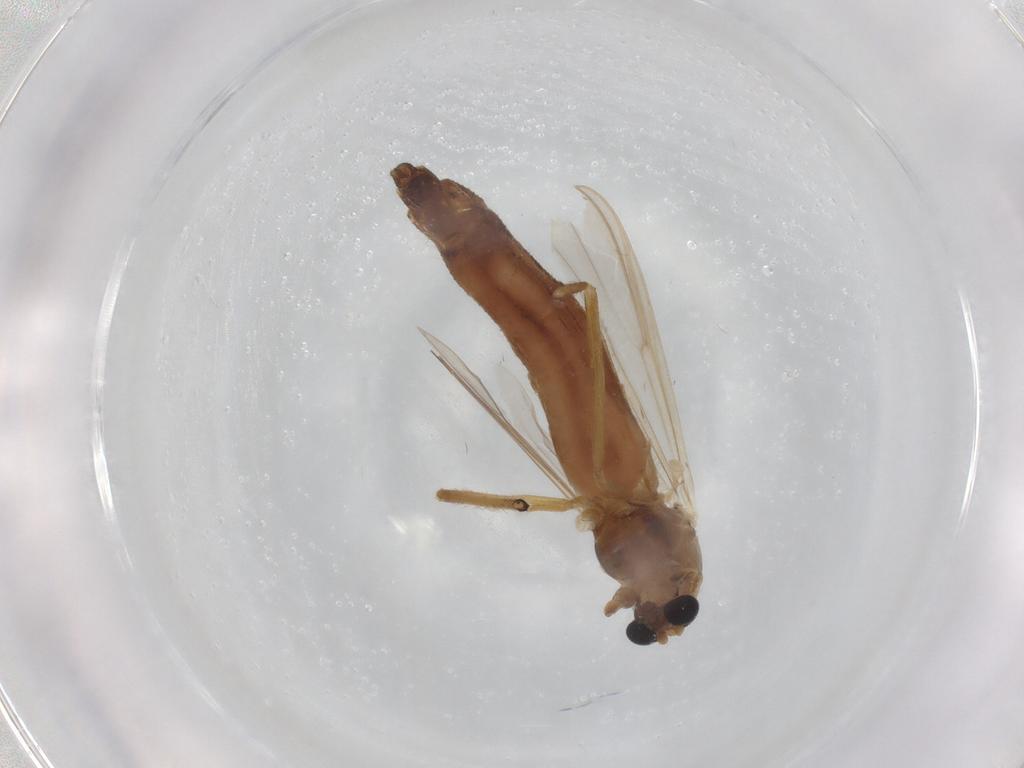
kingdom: Animalia
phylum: Arthropoda
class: Insecta
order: Diptera
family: Chironomidae
